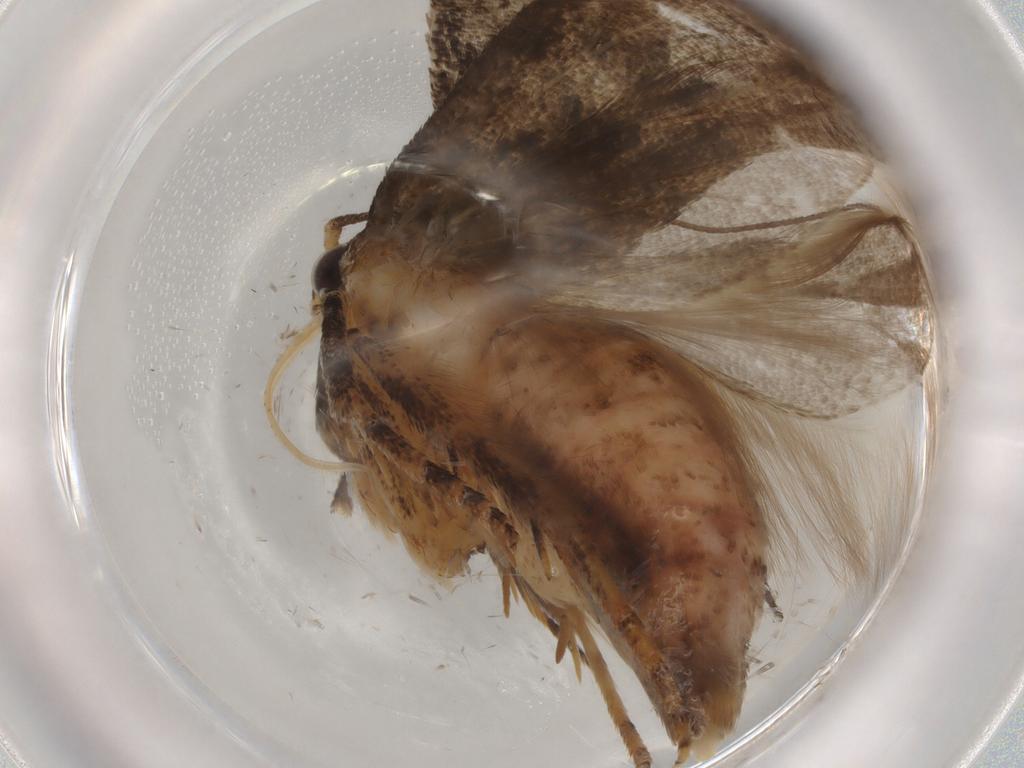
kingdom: Animalia
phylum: Arthropoda
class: Insecta
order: Lepidoptera
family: Gelechiidae
